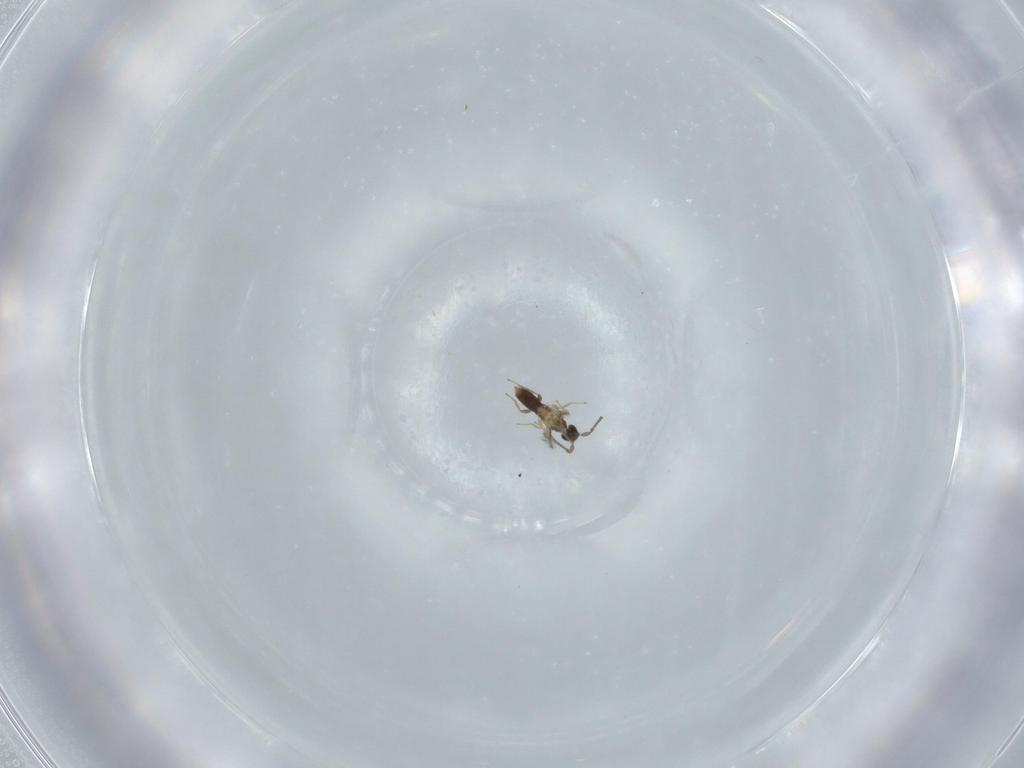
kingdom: Animalia
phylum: Arthropoda
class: Insecta
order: Hymenoptera
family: Mymaridae
